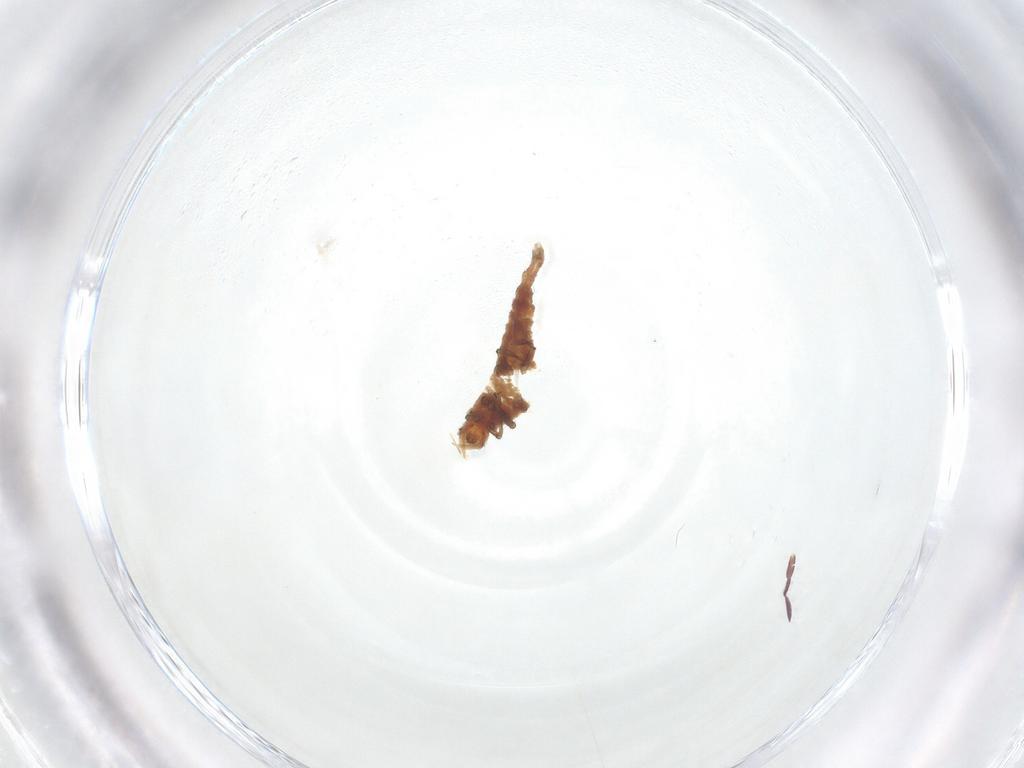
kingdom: Animalia
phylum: Arthropoda
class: Insecta
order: Neuroptera
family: Hemerobiidae
